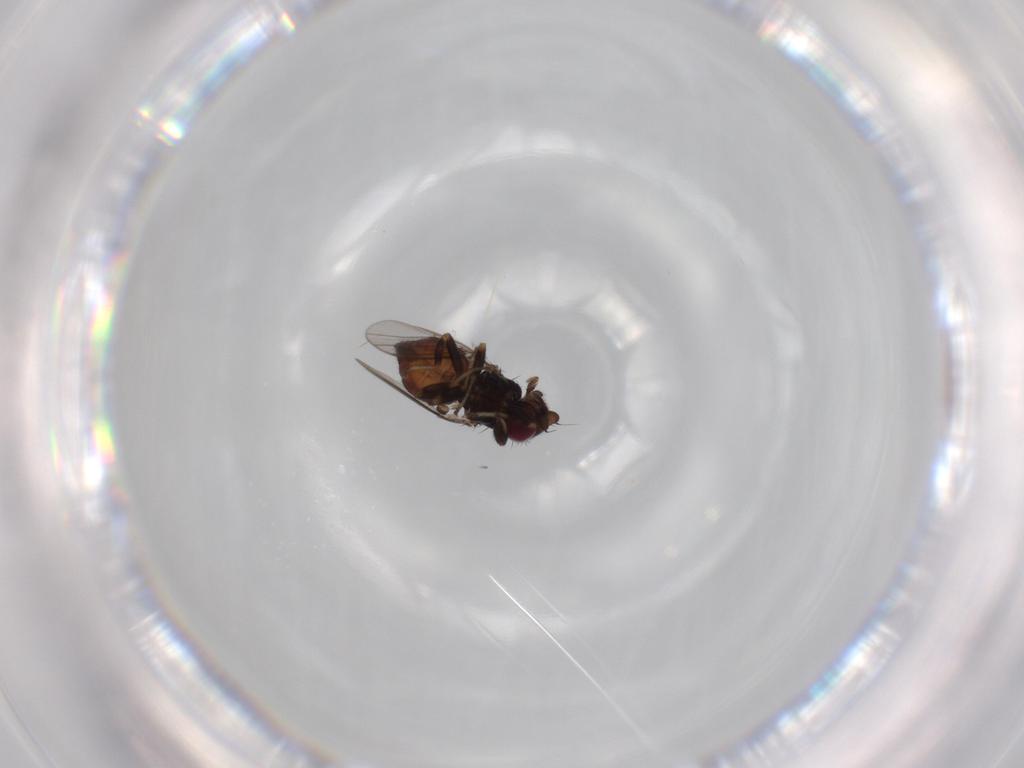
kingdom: Animalia
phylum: Arthropoda
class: Insecta
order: Diptera
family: Chloropidae
